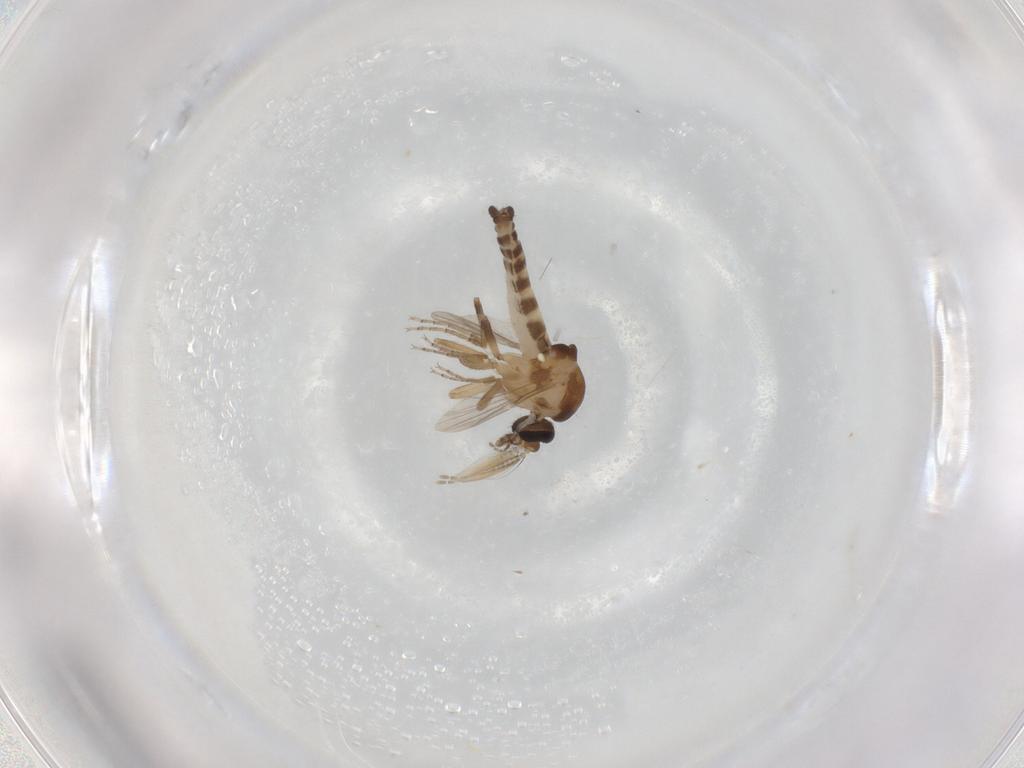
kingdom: Animalia
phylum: Arthropoda
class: Insecta
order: Diptera
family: Ceratopogonidae
